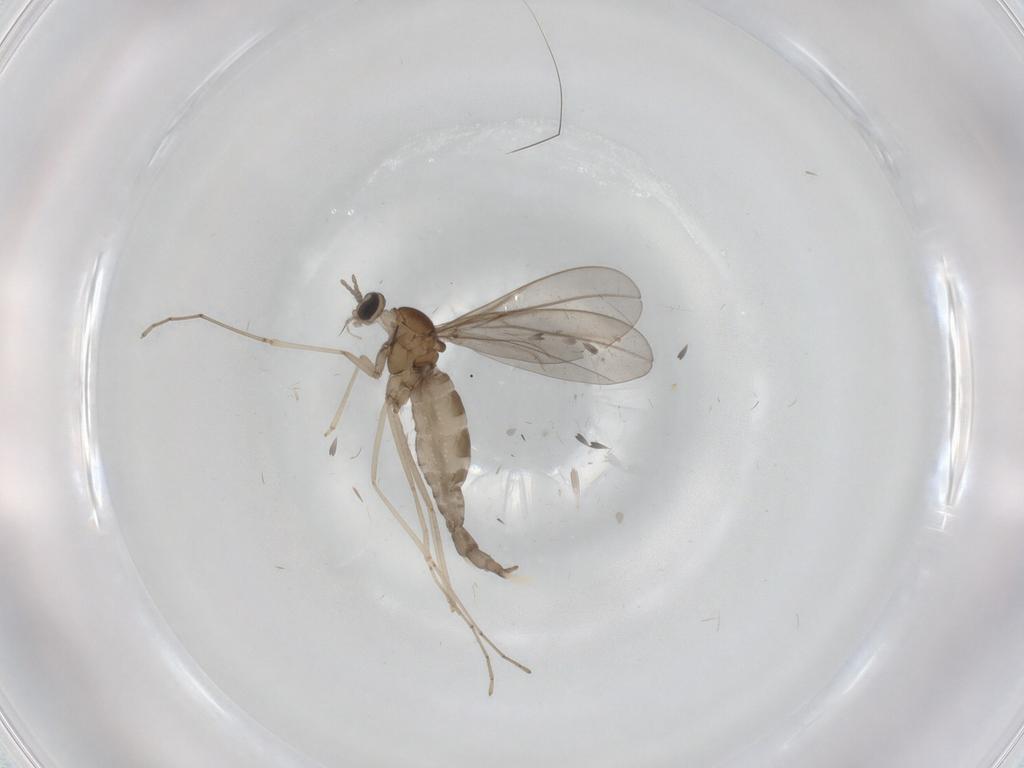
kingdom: Animalia
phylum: Arthropoda
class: Insecta
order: Diptera
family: Cecidomyiidae
